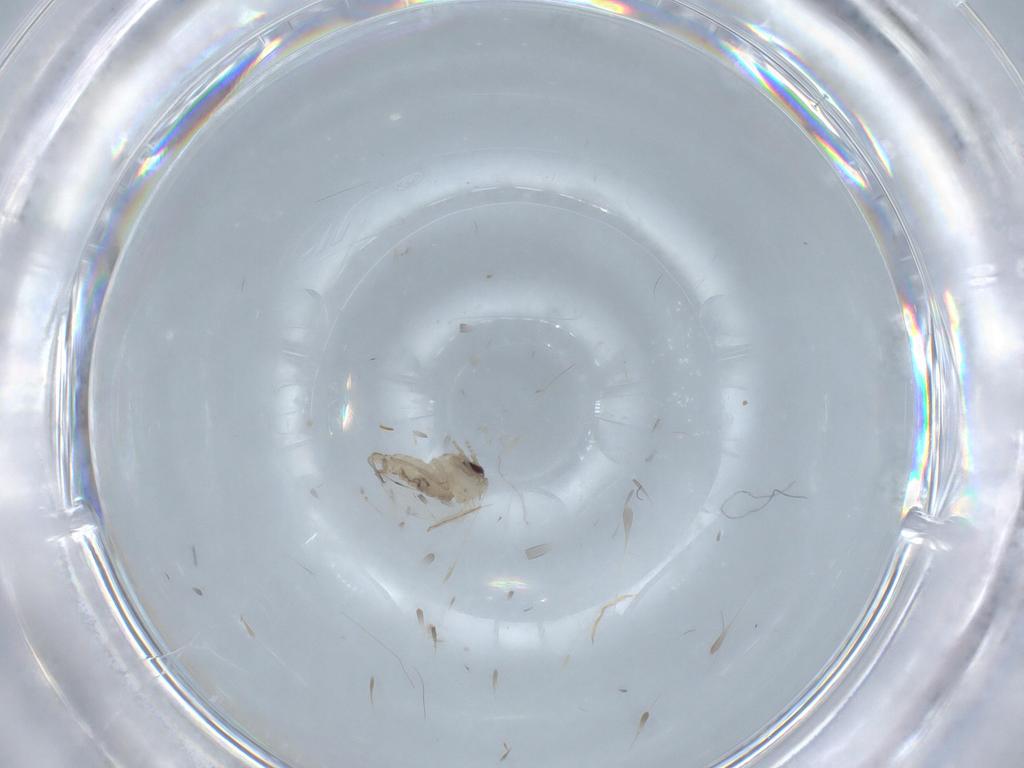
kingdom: Animalia
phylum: Arthropoda
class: Insecta
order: Diptera
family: Psychodidae
